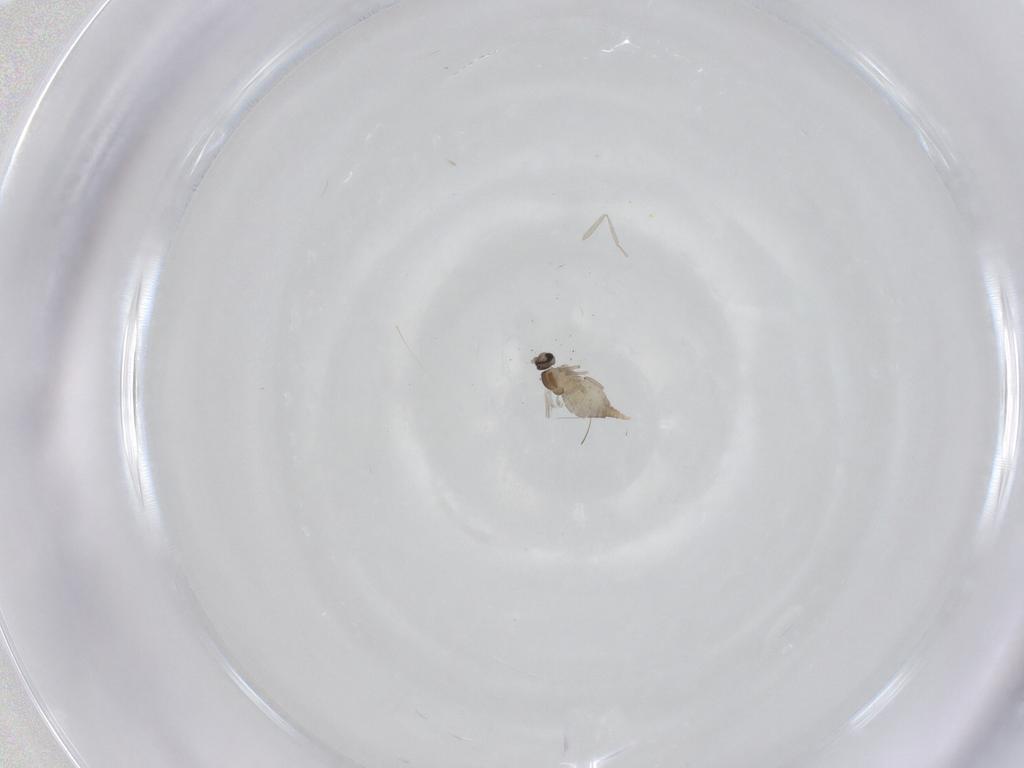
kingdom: Animalia
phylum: Arthropoda
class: Insecta
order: Diptera
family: Cecidomyiidae
